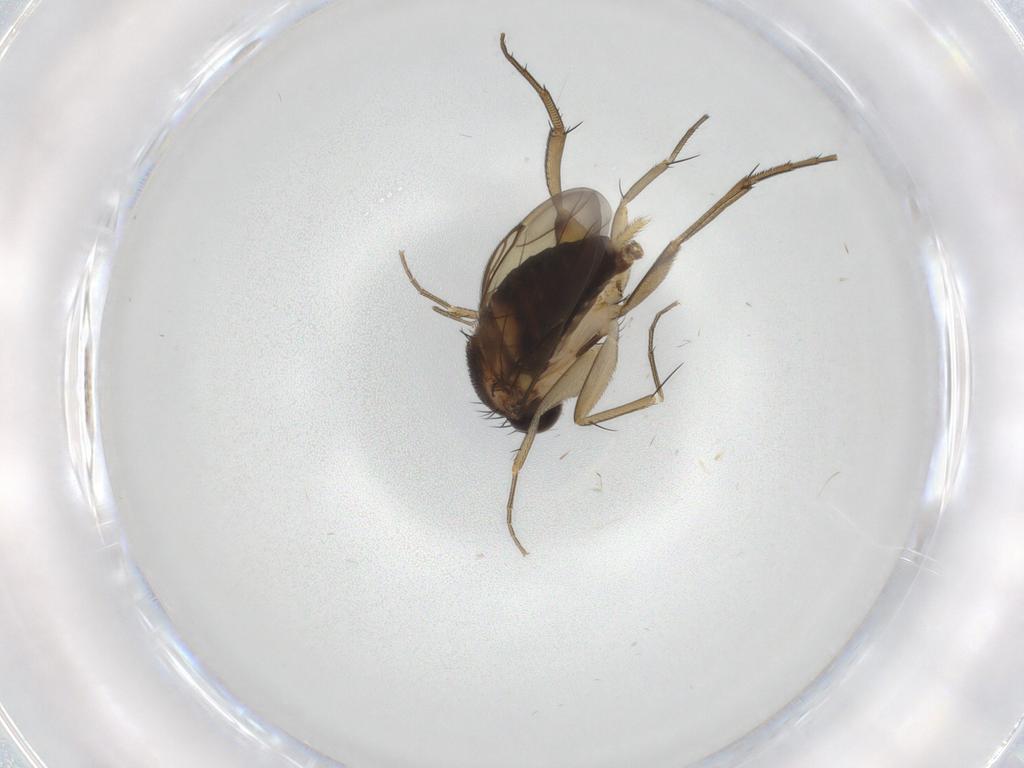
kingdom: Animalia
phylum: Arthropoda
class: Insecta
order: Diptera
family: Phoridae
